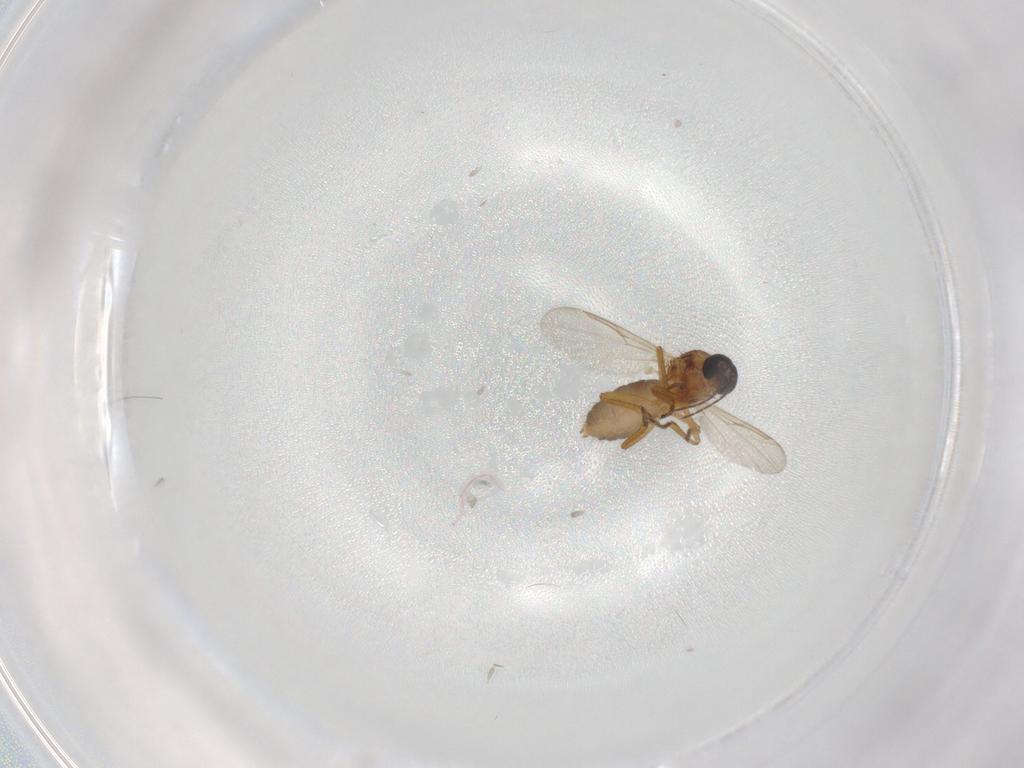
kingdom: Animalia
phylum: Arthropoda
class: Insecta
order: Diptera
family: Ceratopogonidae
